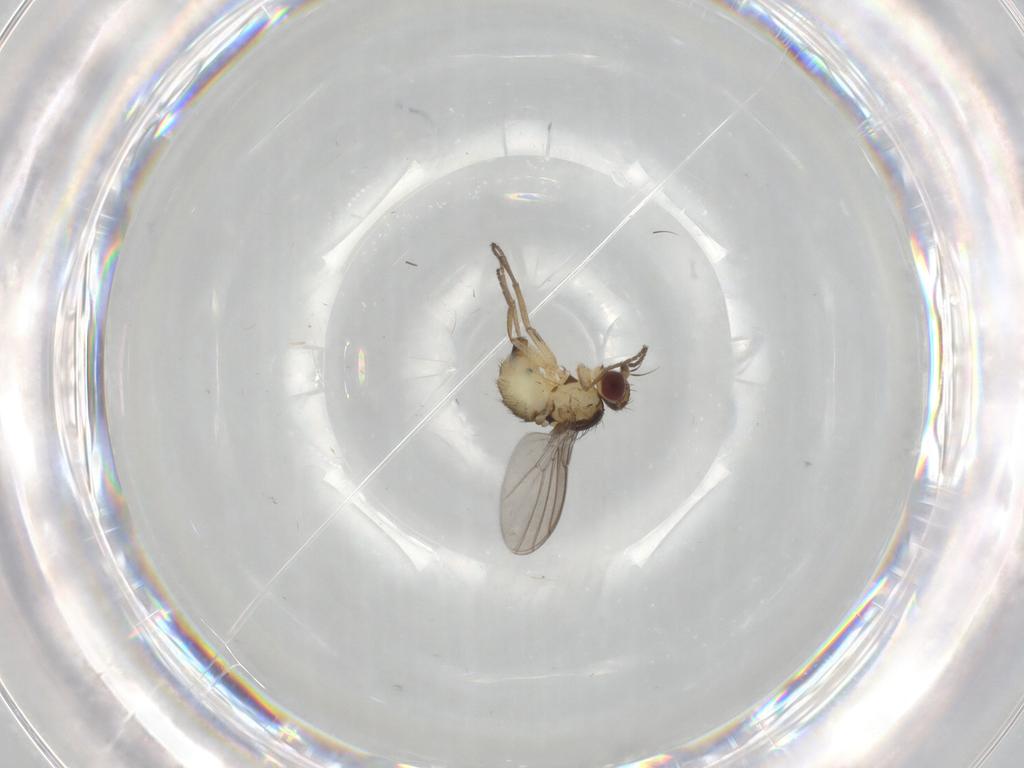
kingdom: Animalia
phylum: Arthropoda
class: Insecta
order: Diptera
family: Agromyzidae
